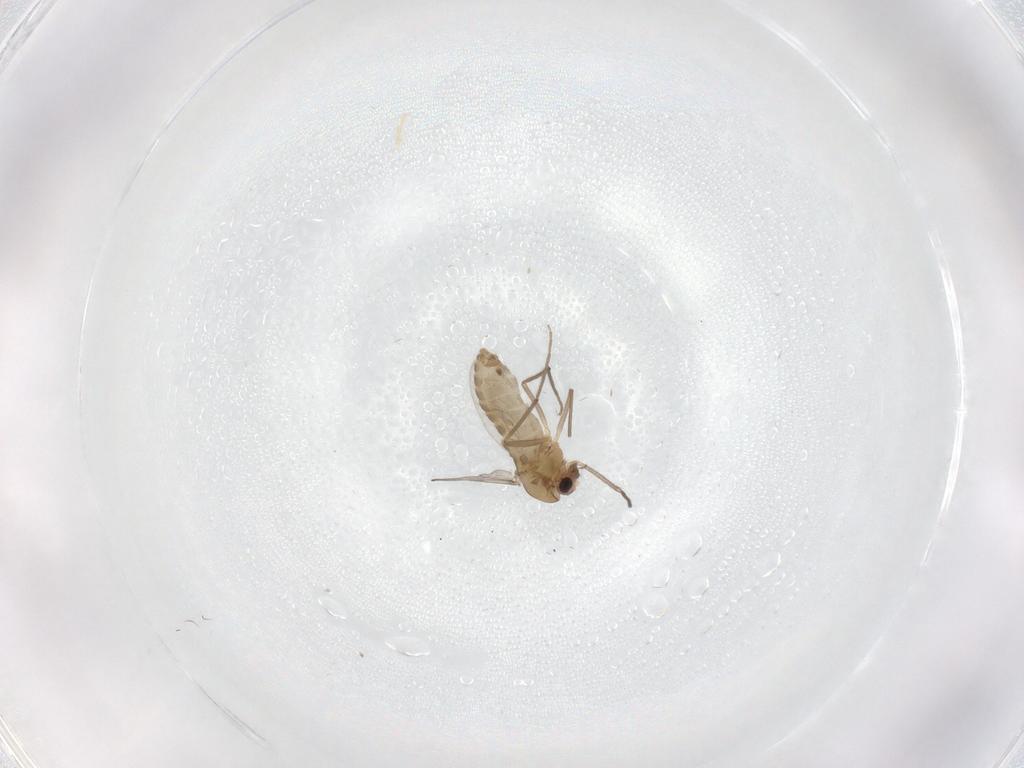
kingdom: Animalia
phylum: Arthropoda
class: Insecta
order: Diptera
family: Chironomidae
